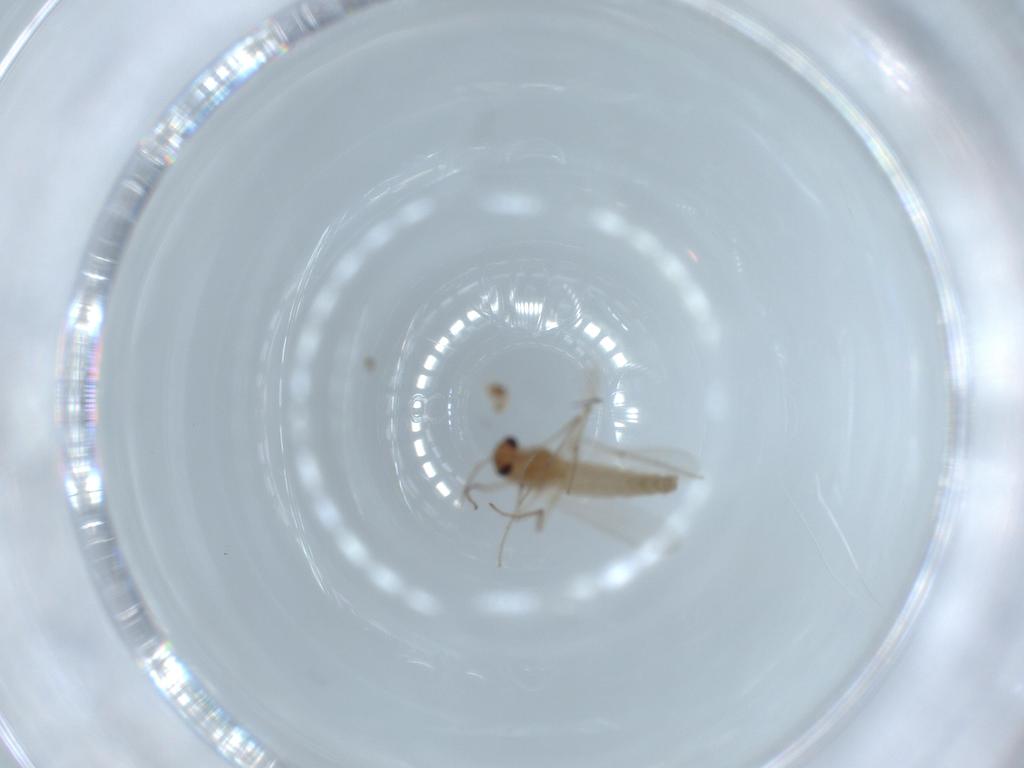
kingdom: Animalia
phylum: Arthropoda
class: Insecta
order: Diptera
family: Chironomidae
